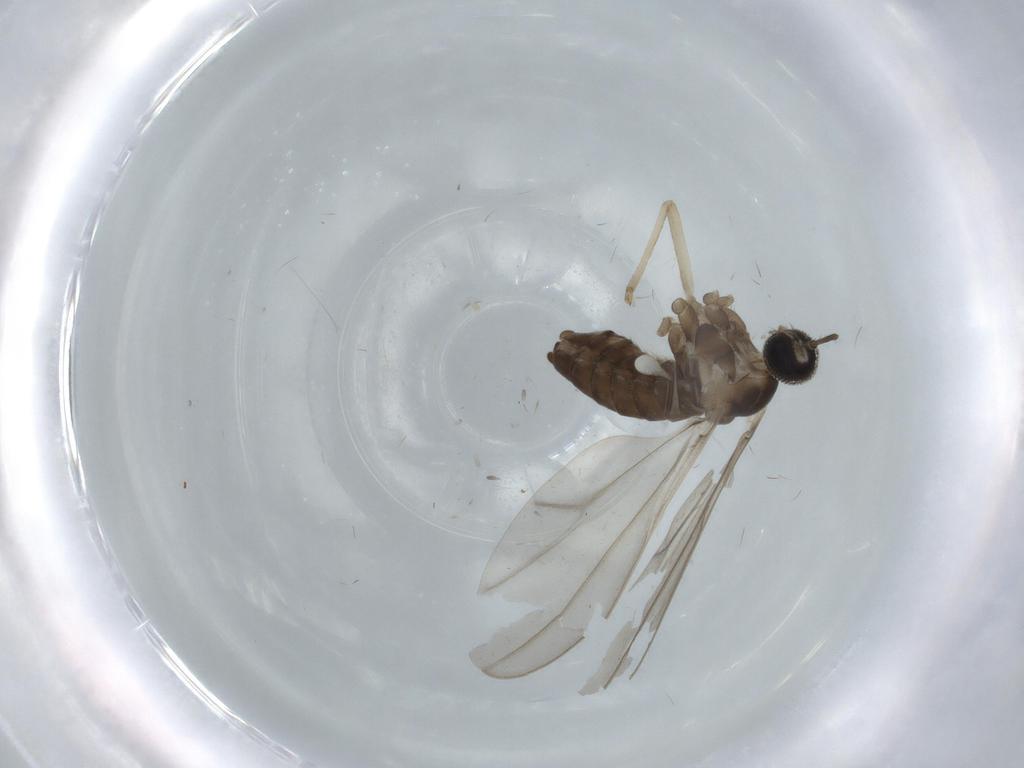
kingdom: Animalia
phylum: Arthropoda
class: Insecta
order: Diptera
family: Cecidomyiidae
